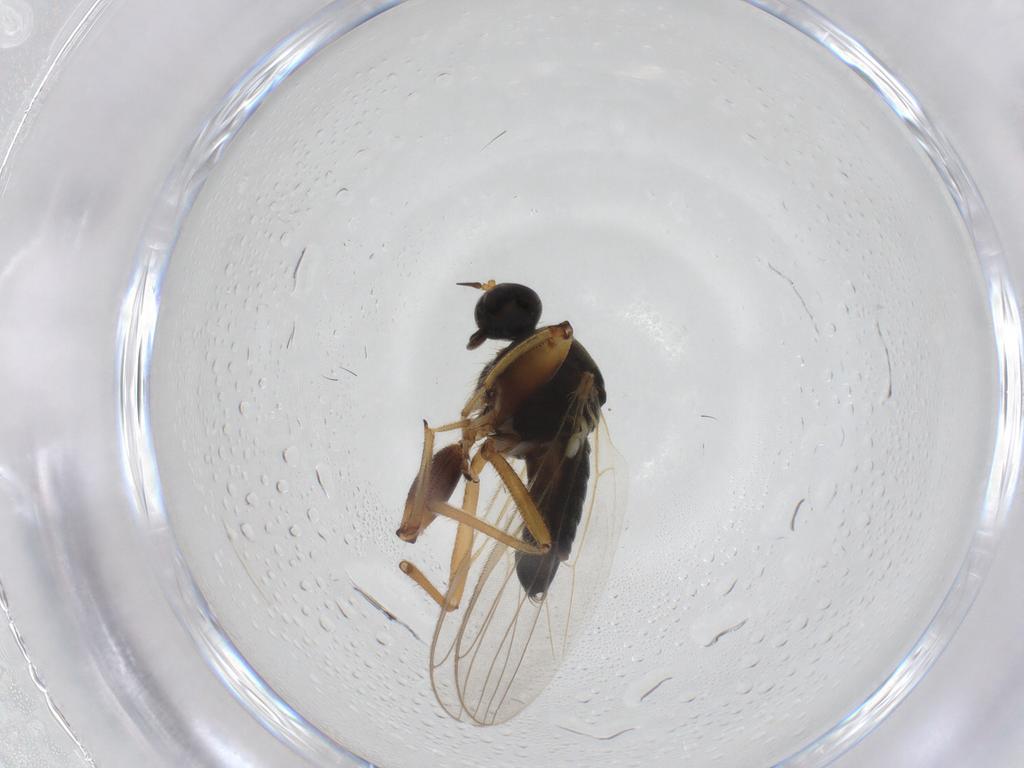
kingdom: Animalia
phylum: Arthropoda
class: Insecta
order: Diptera
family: Hybotidae
